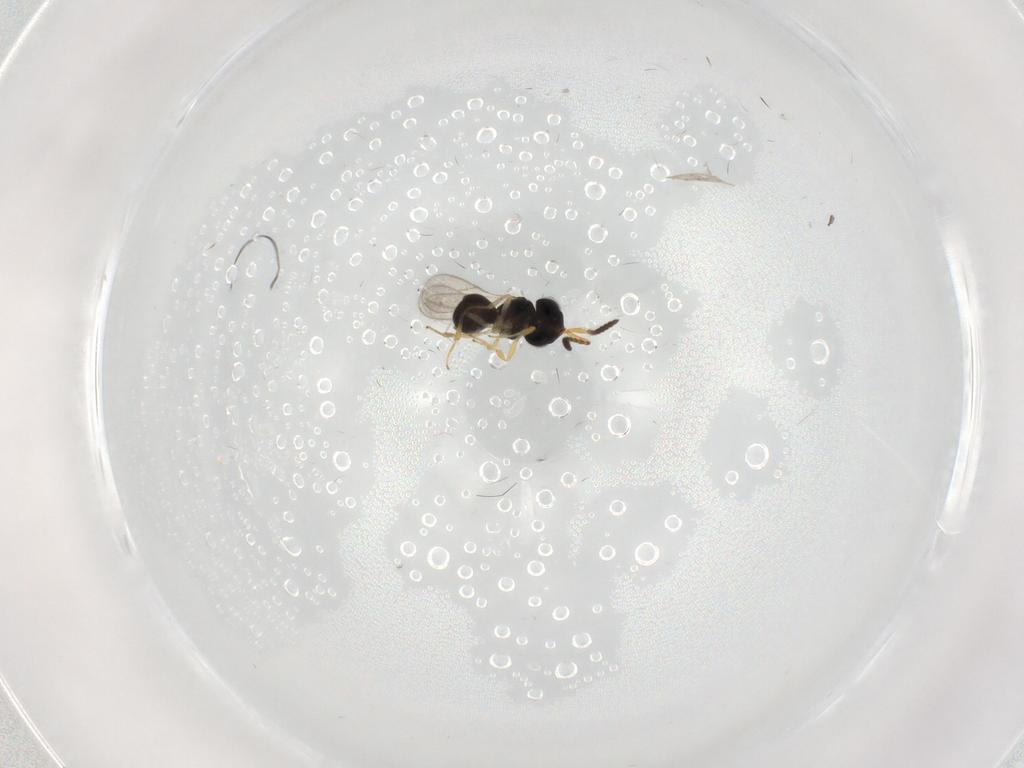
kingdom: Animalia
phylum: Arthropoda
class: Insecta
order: Hymenoptera
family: Scelionidae
